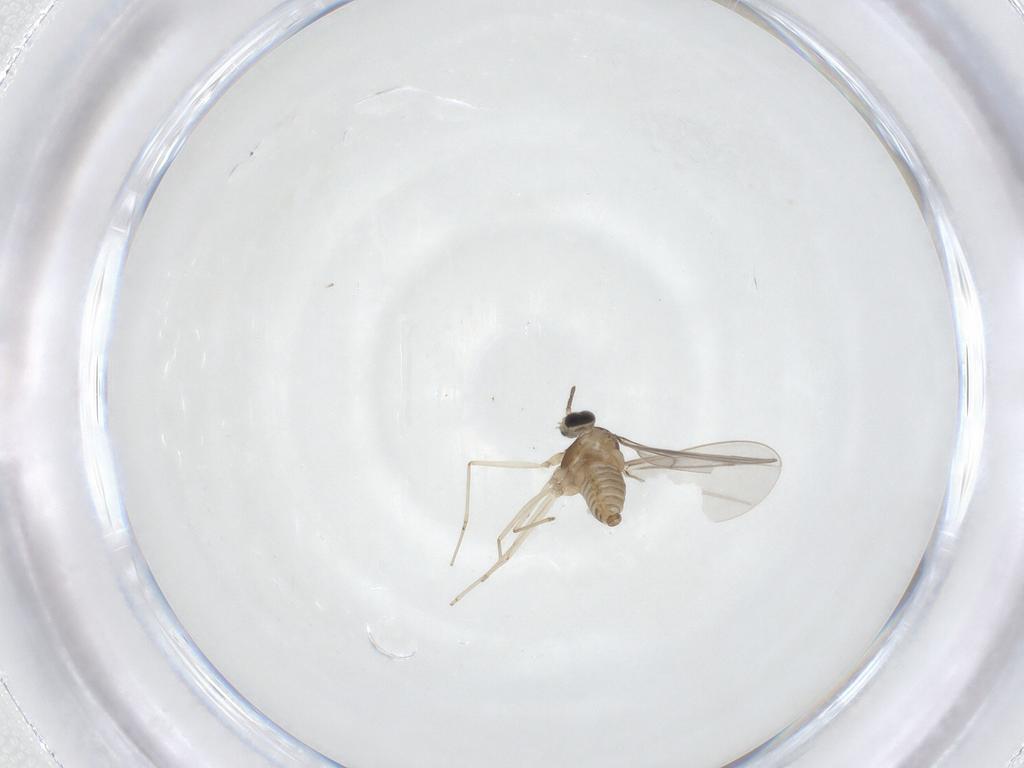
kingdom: Animalia
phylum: Arthropoda
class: Insecta
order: Diptera
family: Cecidomyiidae
